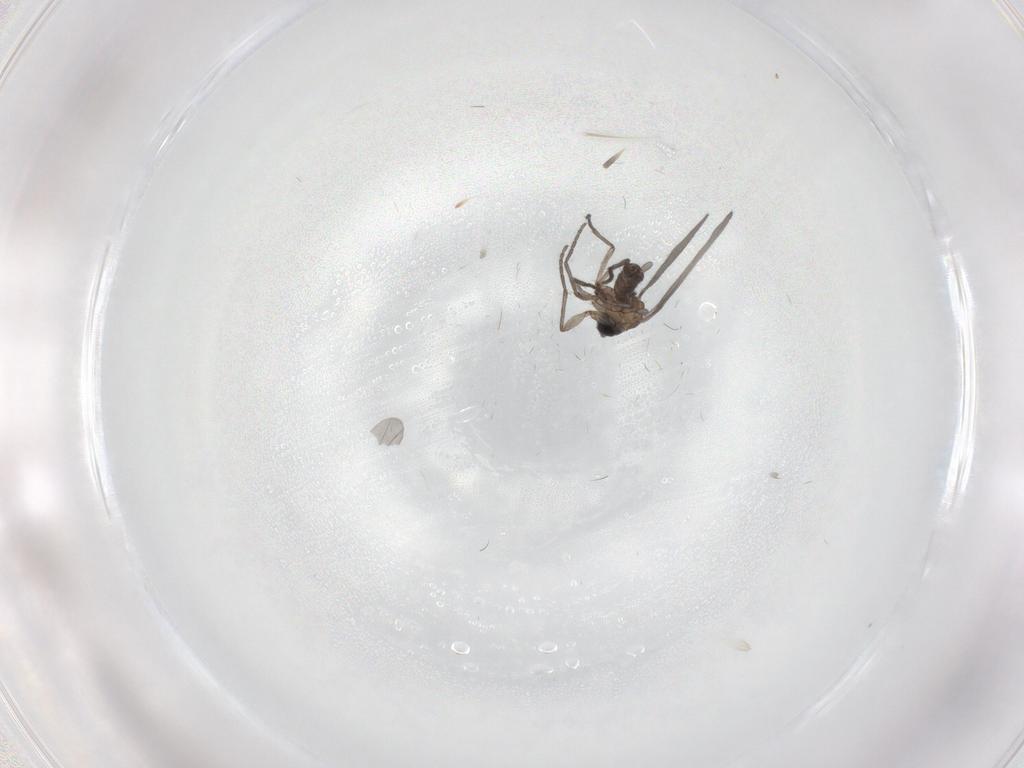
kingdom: Animalia
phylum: Arthropoda
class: Insecta
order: Diptera
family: Sciaridae
